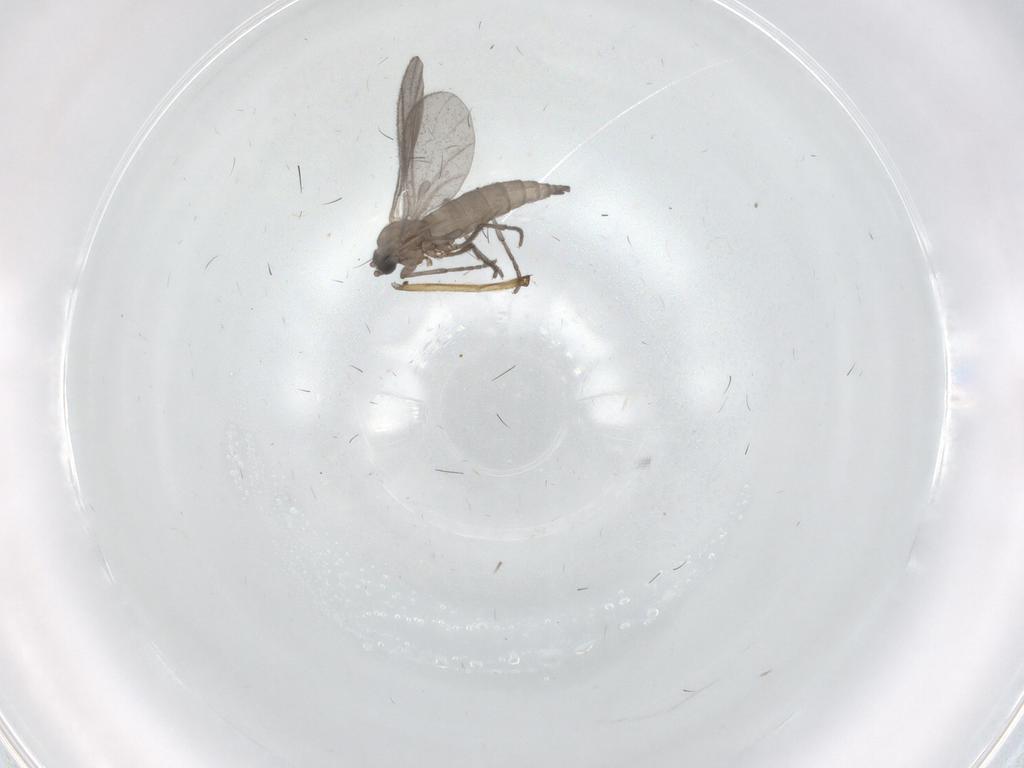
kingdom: Animalia
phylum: Arthropoda
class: Insecta
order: Diptera
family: Sciaridae
